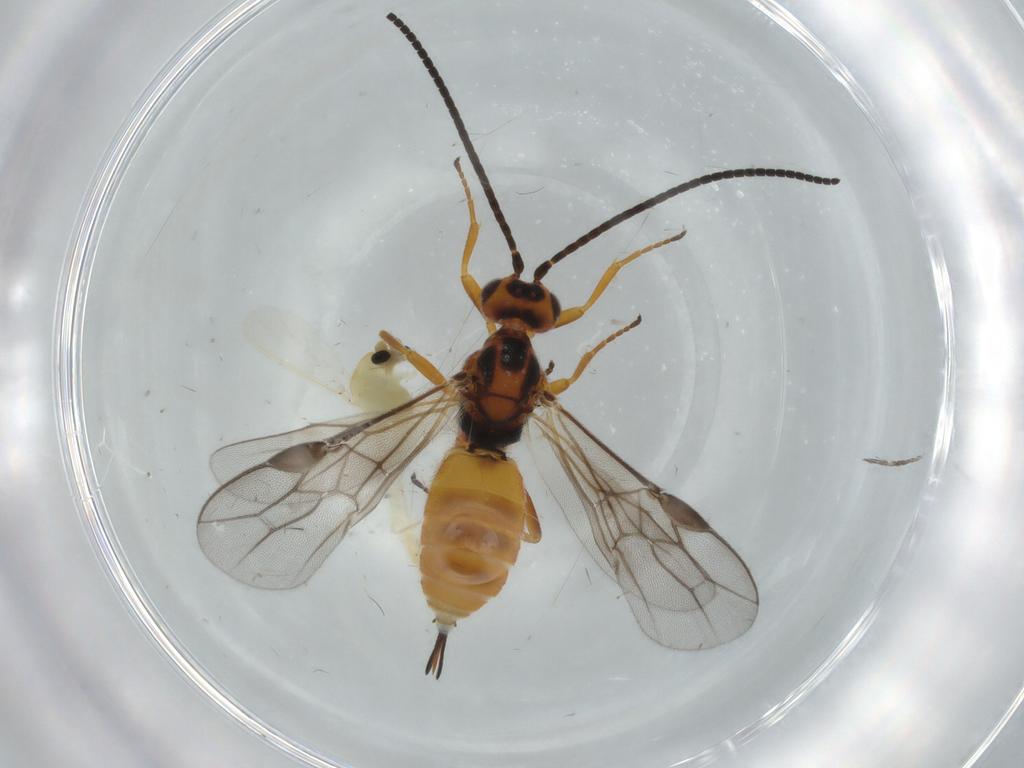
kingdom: Animalia
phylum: Arthropoda
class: Insecta
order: Diptera
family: Chironomidae
